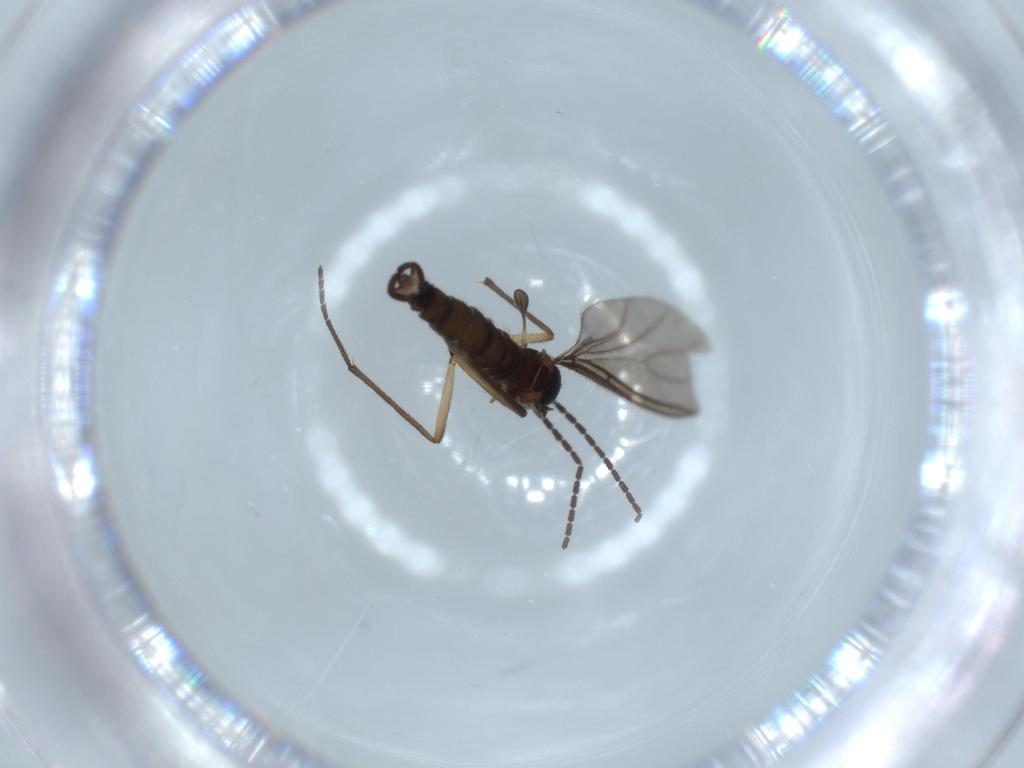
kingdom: Animalia
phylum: Arthropoda
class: Insecta
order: Diptera
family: Sciaridae
